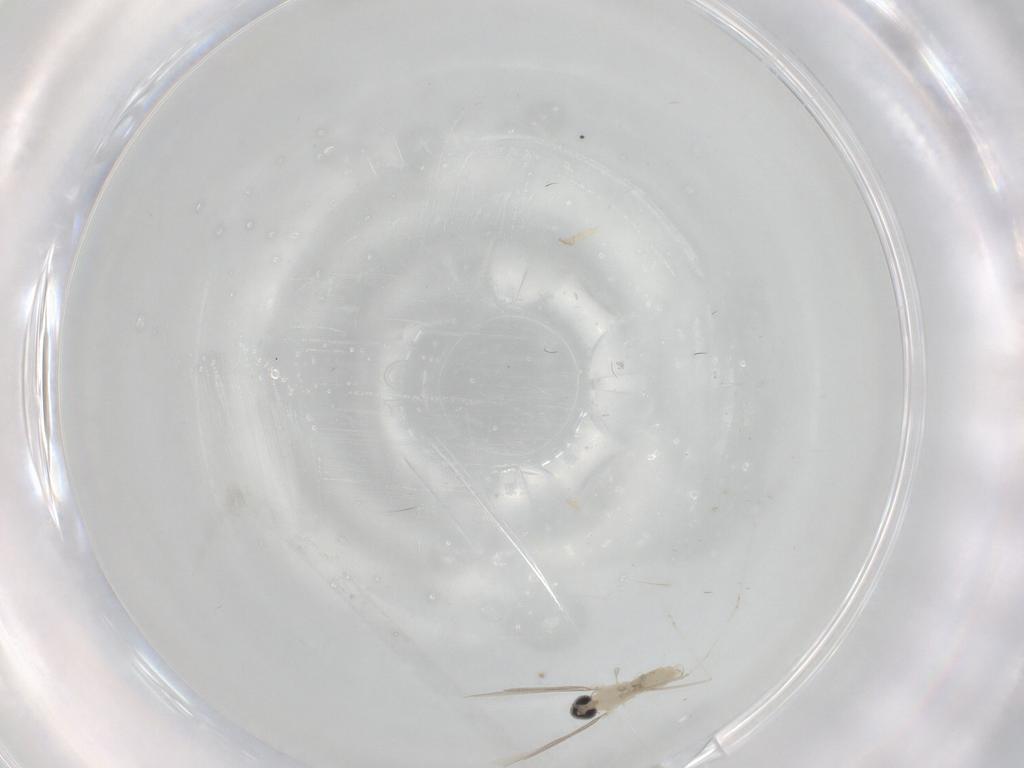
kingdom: Animalia
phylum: Arthropoda
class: Insecta
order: Diptera
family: Cecidomyiidae
